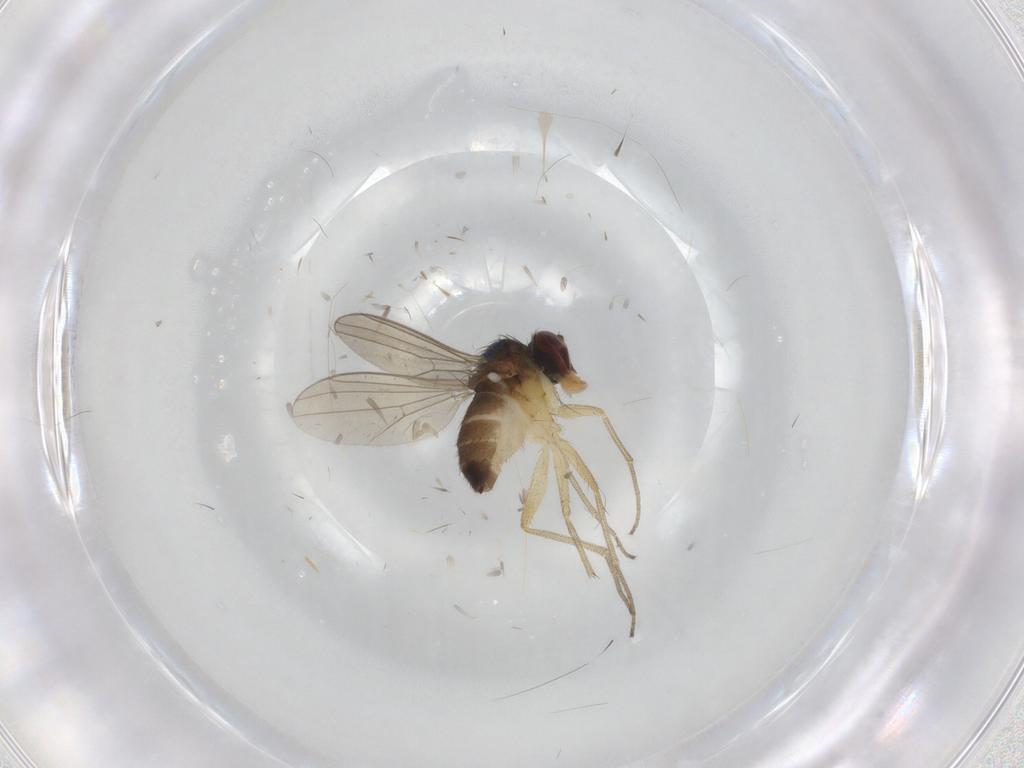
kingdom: Animalia
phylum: Arthropoda
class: Insecta
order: Diptera
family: Dolichopodidae
